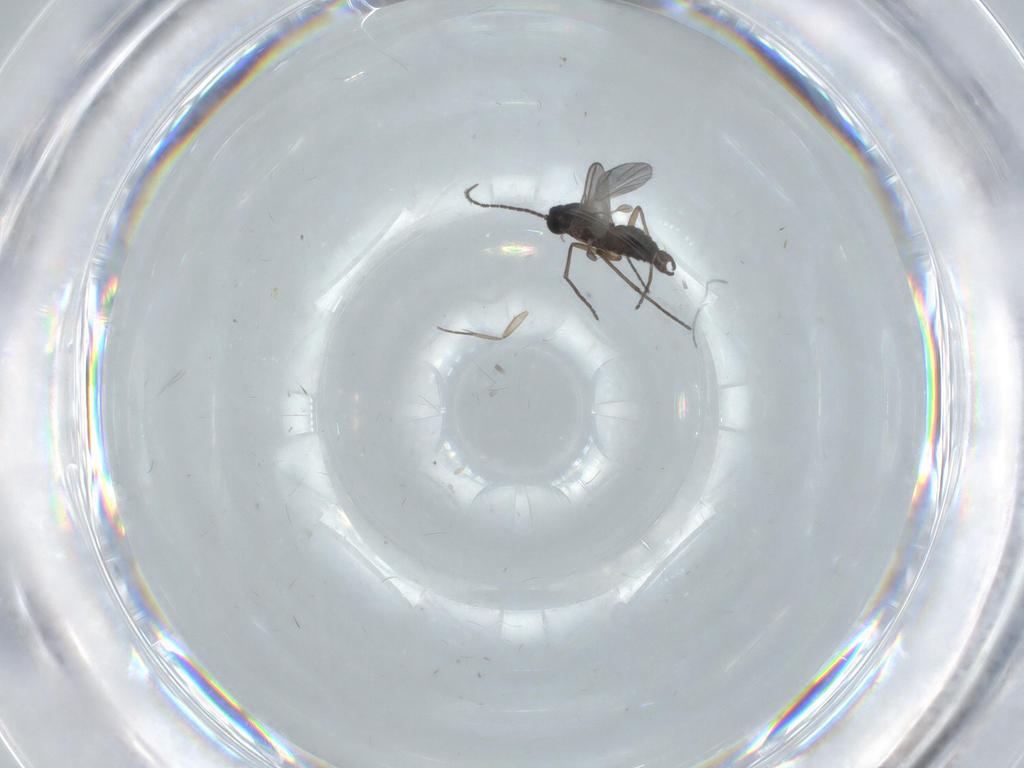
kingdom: Animalia
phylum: Arthropoda
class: Insecta
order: Diptera
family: Sciaridae
